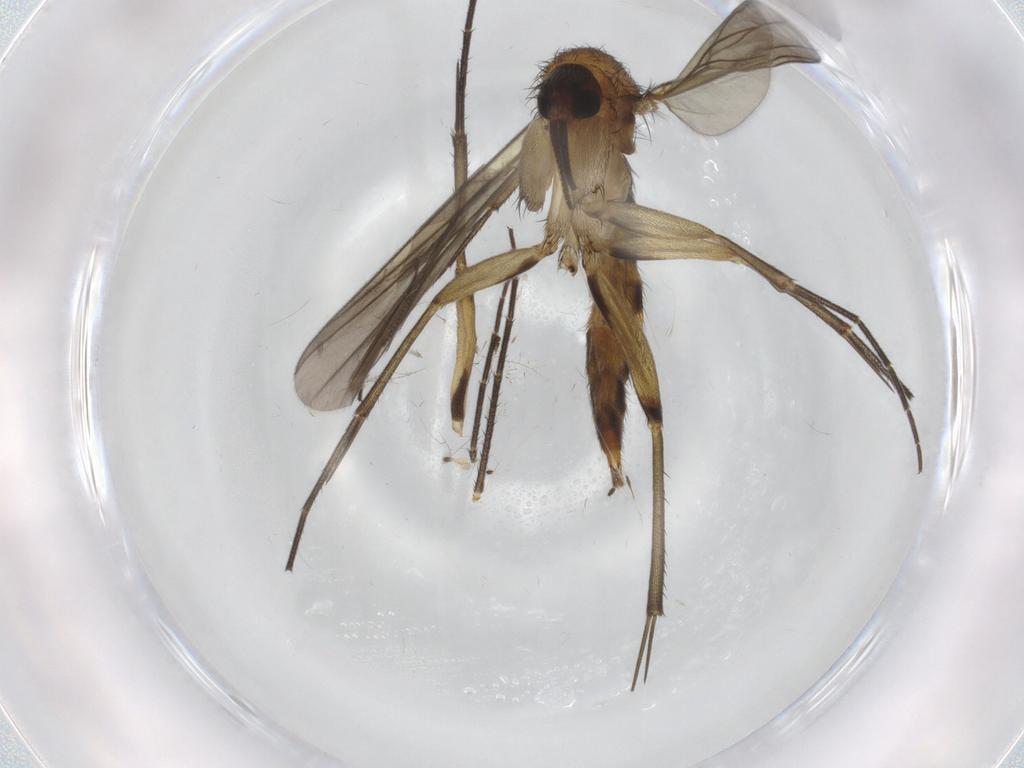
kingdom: Animalia
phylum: Arthropoda
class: Insecta
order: Diptera
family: Mycetophilidae
